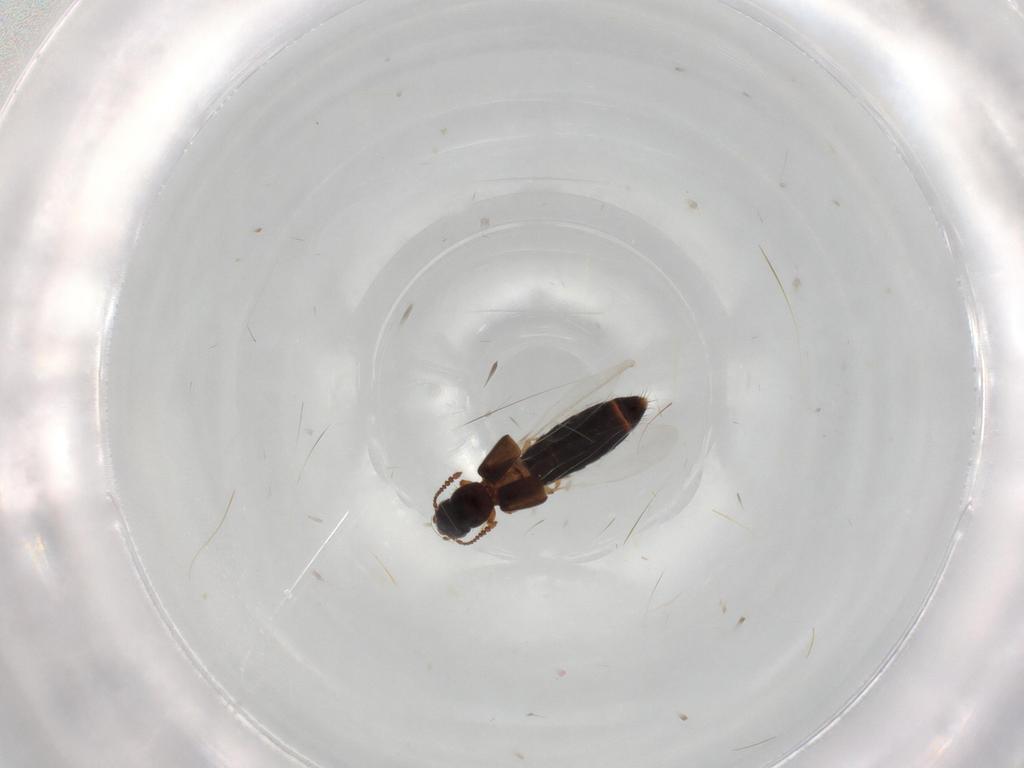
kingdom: Animalia
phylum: Arthropoda
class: Insecta
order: Coleoptera
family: Staphylinidae
